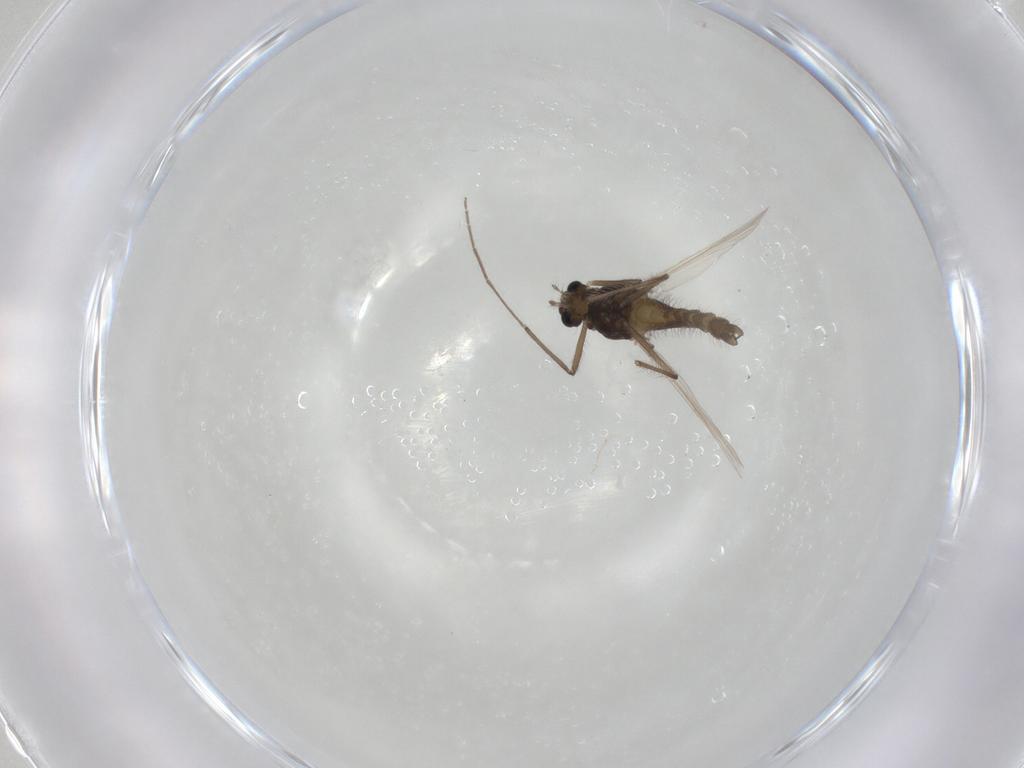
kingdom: Animalia
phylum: Arthropoda
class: Insecta
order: Diptera
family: Chironomidae
